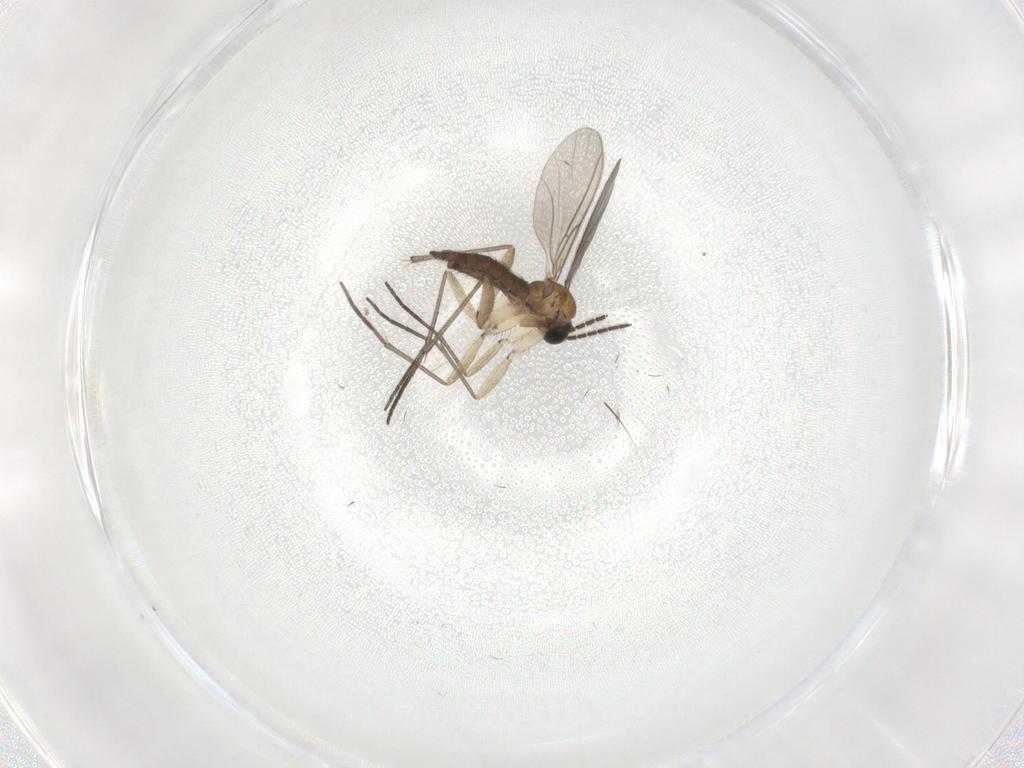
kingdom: Animalia
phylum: Arthropoda
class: Insecta
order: Diptera
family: Sciaridae
